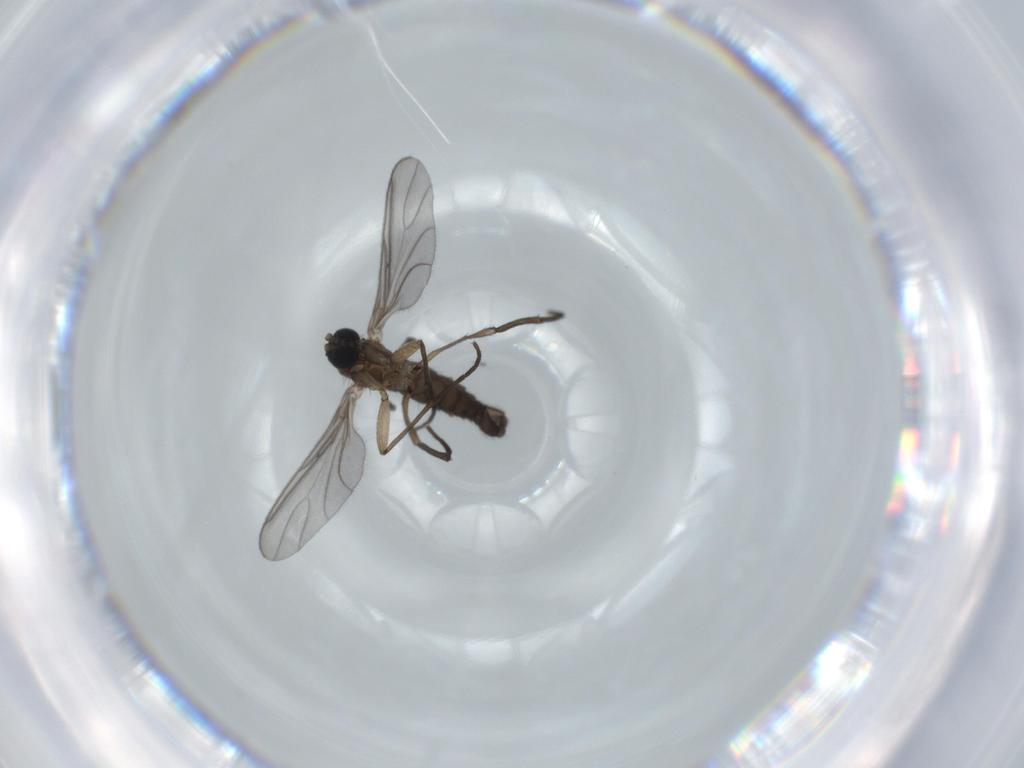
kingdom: Animalia
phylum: Arthropoda
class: Insecta
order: Diptera
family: Sciaridae
